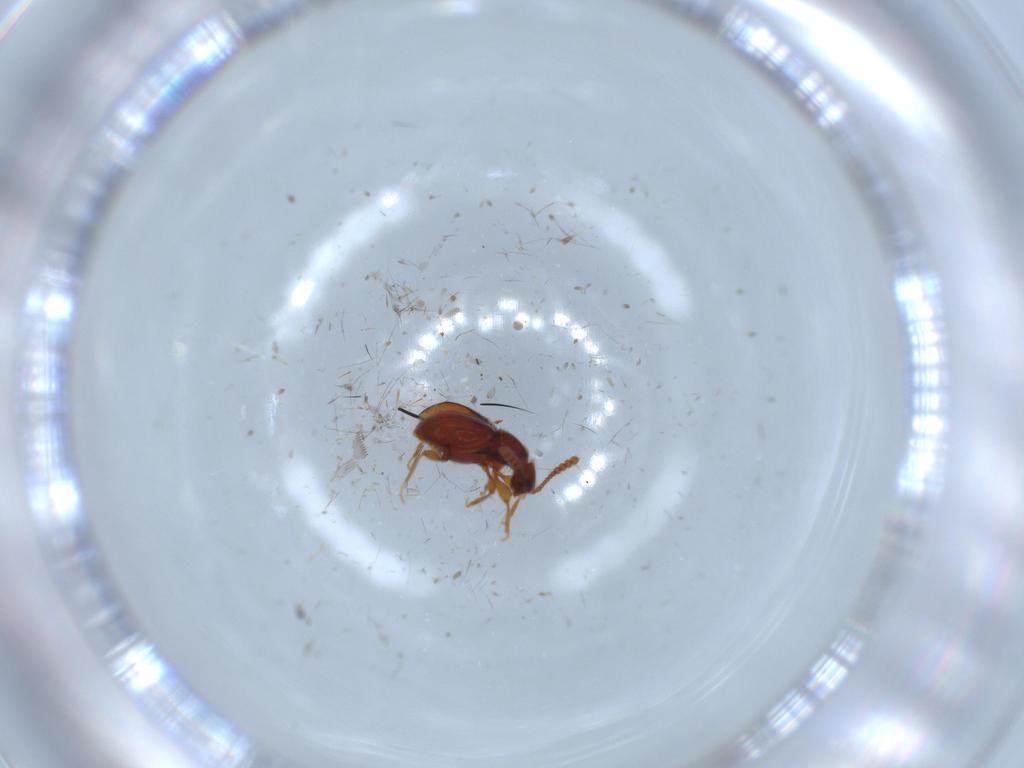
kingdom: Animalia
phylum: Arthropoda
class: Insecta
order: Coleoptera
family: Staphylinidae
